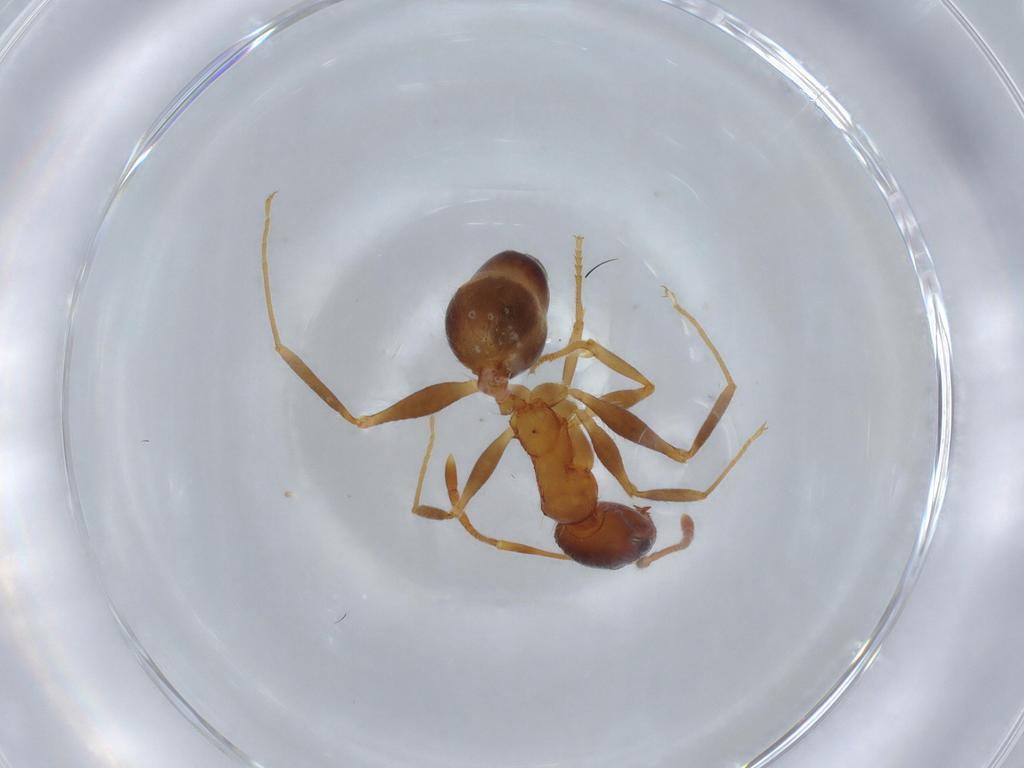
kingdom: Animalia
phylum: Arthropoda
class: Insecta
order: Hymenoptera
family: Formicidae
